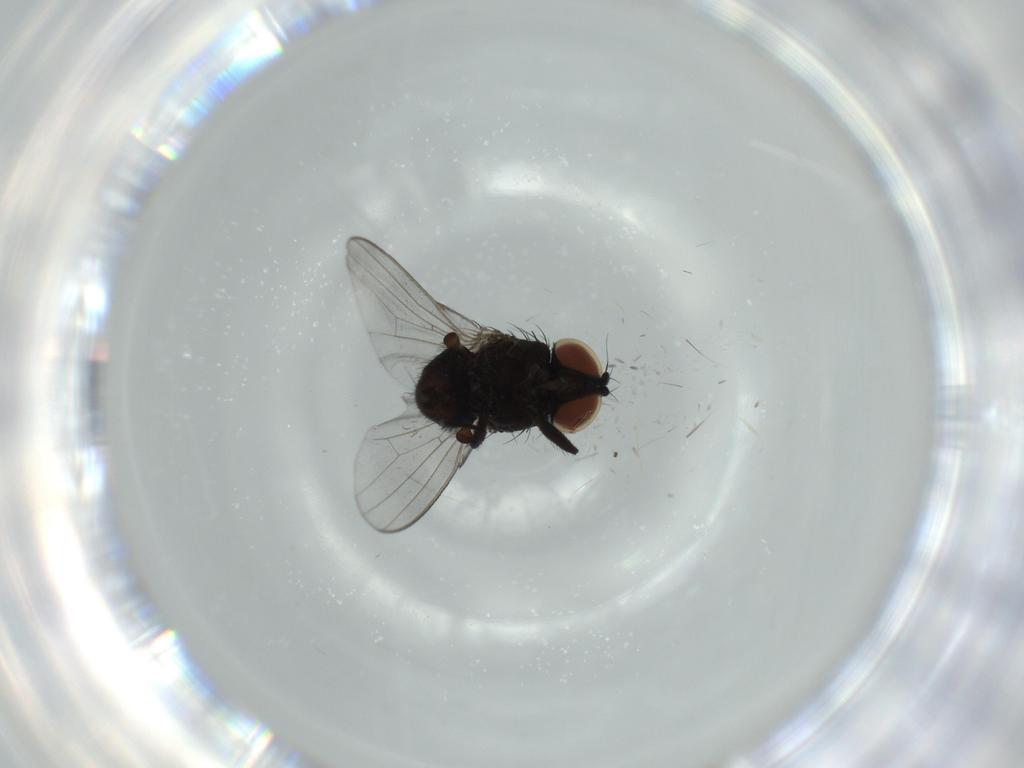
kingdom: Animalia
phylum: Arthropoda
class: Insecta
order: Diptera
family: Milichiidae
